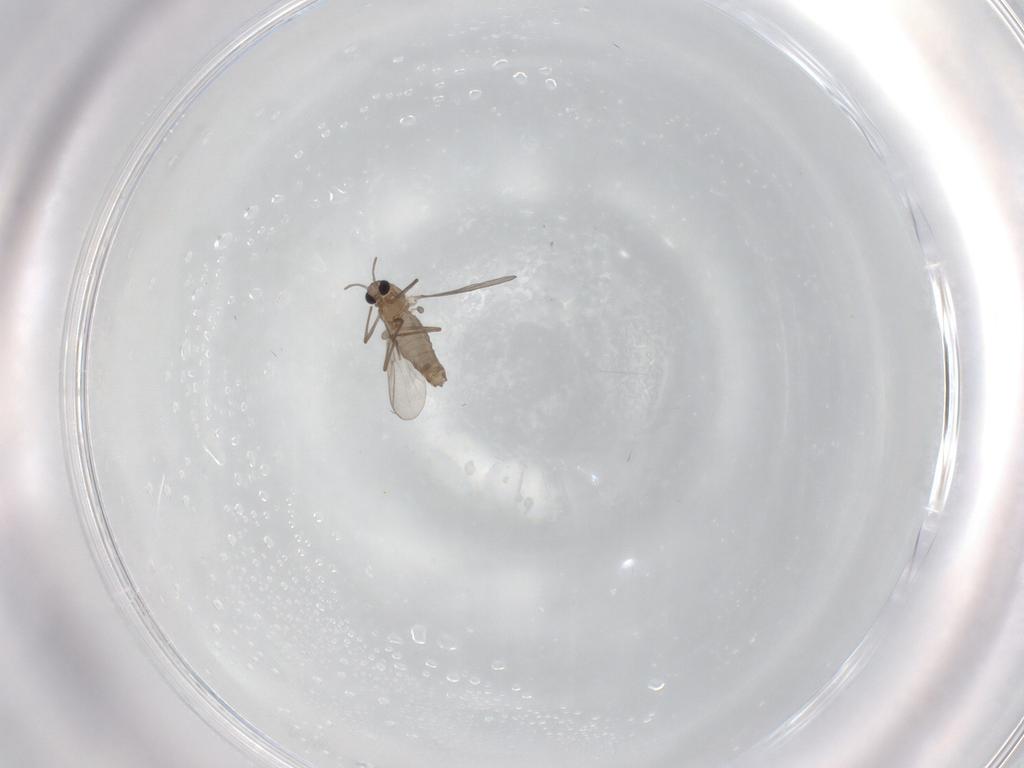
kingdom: Animalia
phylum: Arthropoda
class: Insecta
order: Diptera
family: Chironomidae
